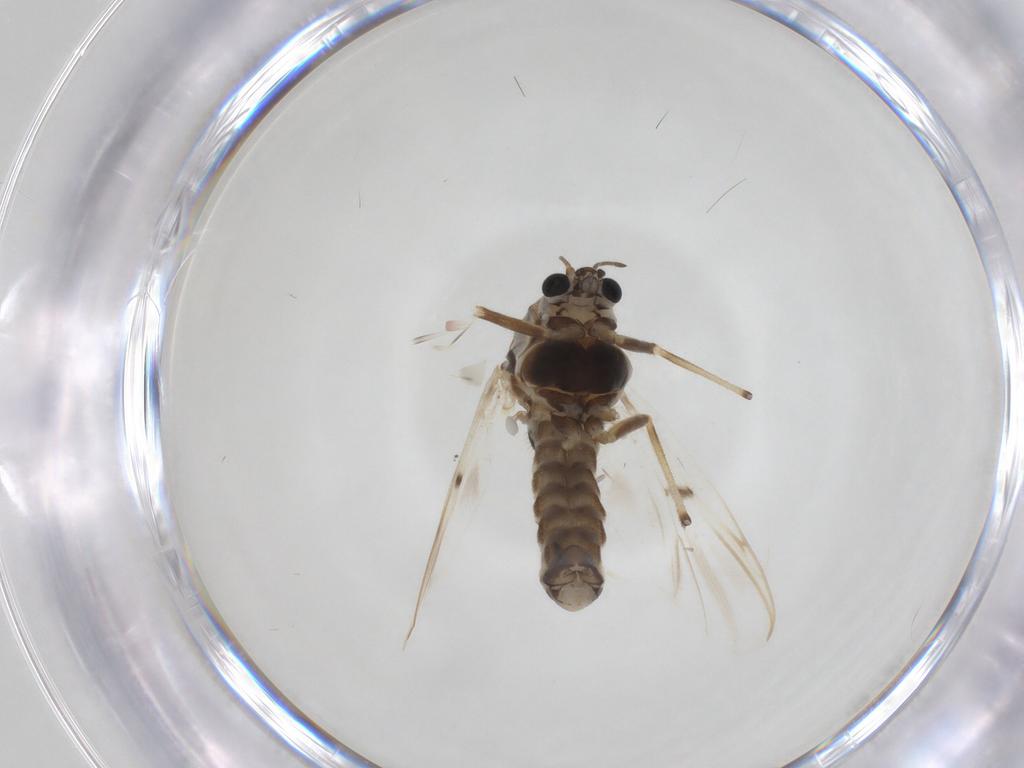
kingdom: Animalia
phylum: Arthropoda
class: Insecta
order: Diptera
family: Chironomidae
